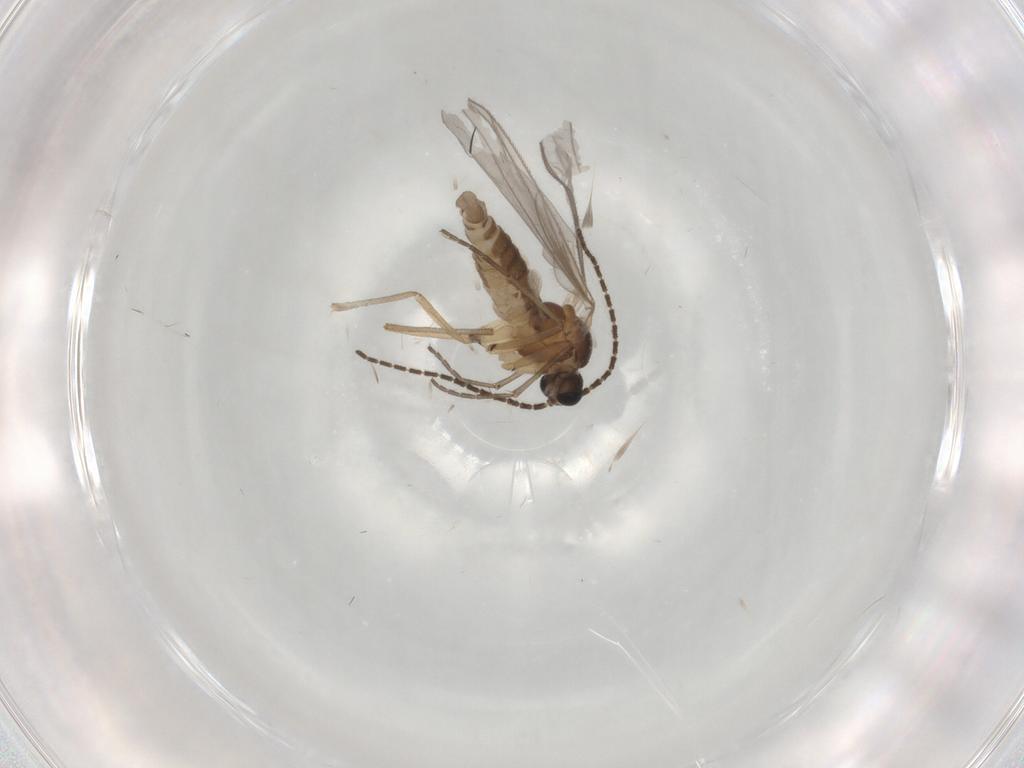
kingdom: Animalia
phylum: Arthropoda
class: Insecta
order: Diptera
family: Sciaridae
